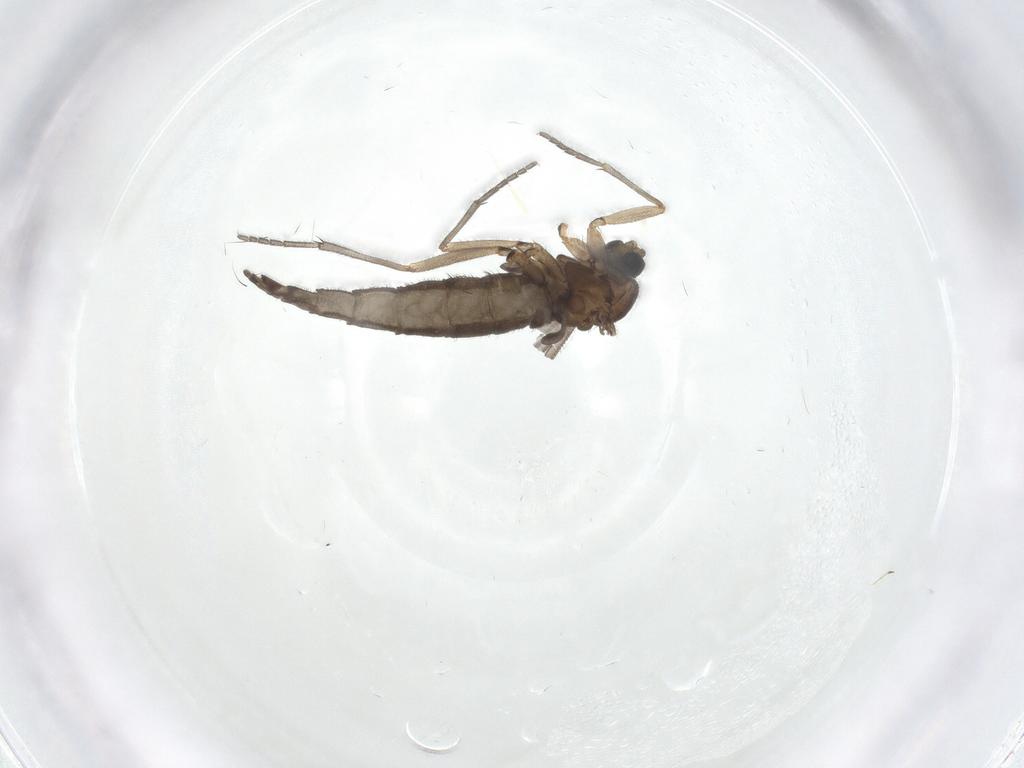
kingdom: Animalia
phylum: Arthropoda
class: Insecta
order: Diptera
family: Sciaridae
